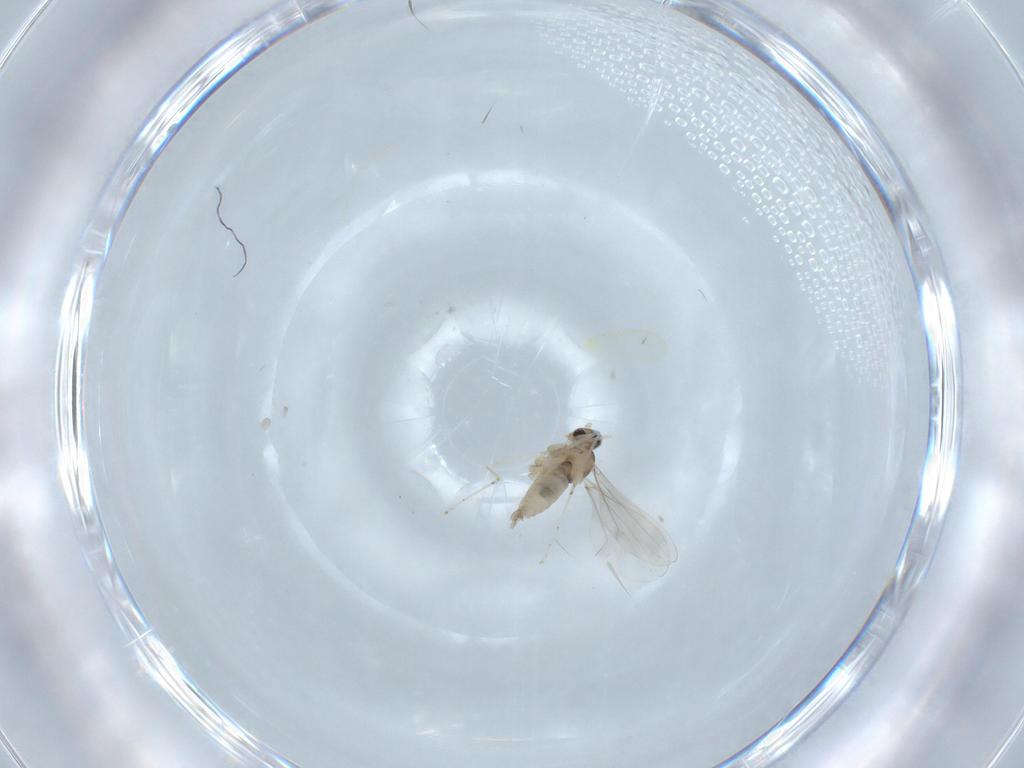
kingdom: Animalia
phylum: Arthropoda
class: Insecta
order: Diptera
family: Cecidomyiidae
